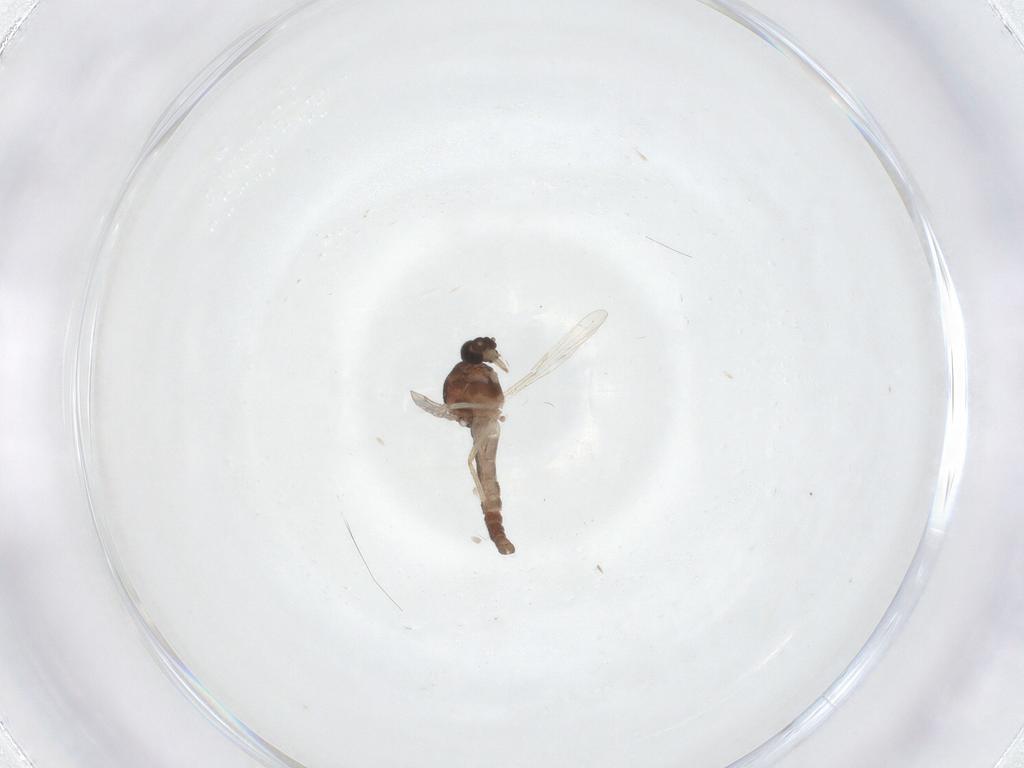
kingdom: Animalia
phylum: Arthropoda
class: Insecta
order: Diptera
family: Ceratopogonidae
